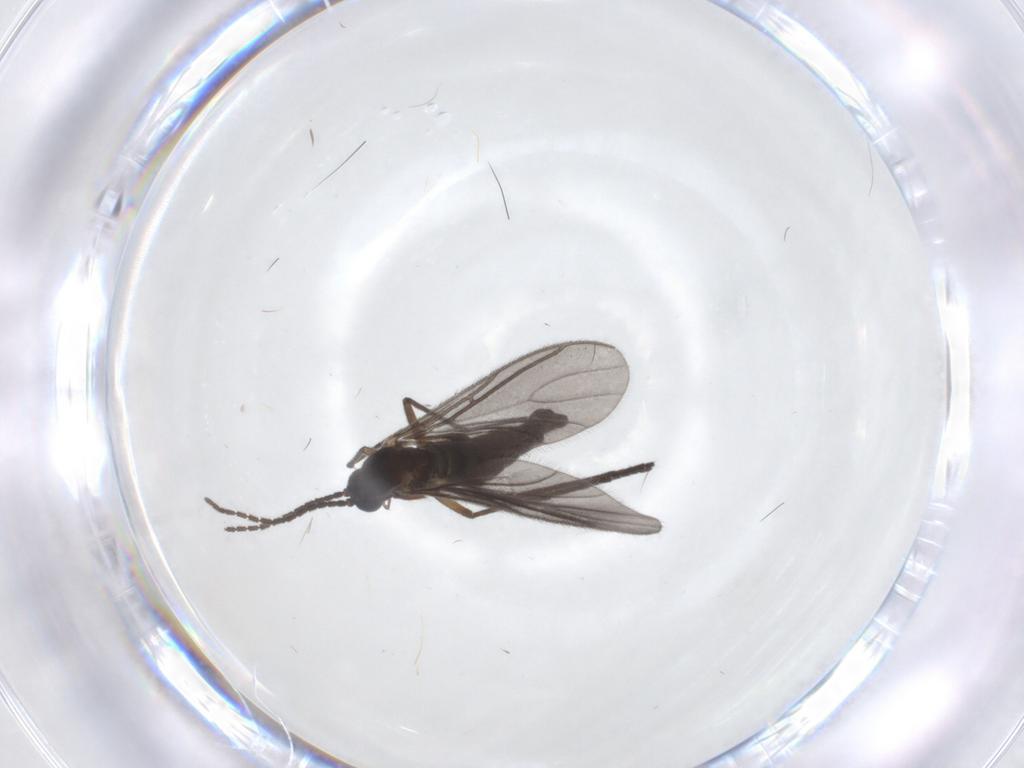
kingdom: Animalia
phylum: Arthropoda
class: Insecta
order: Diptera
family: Sciaridae
